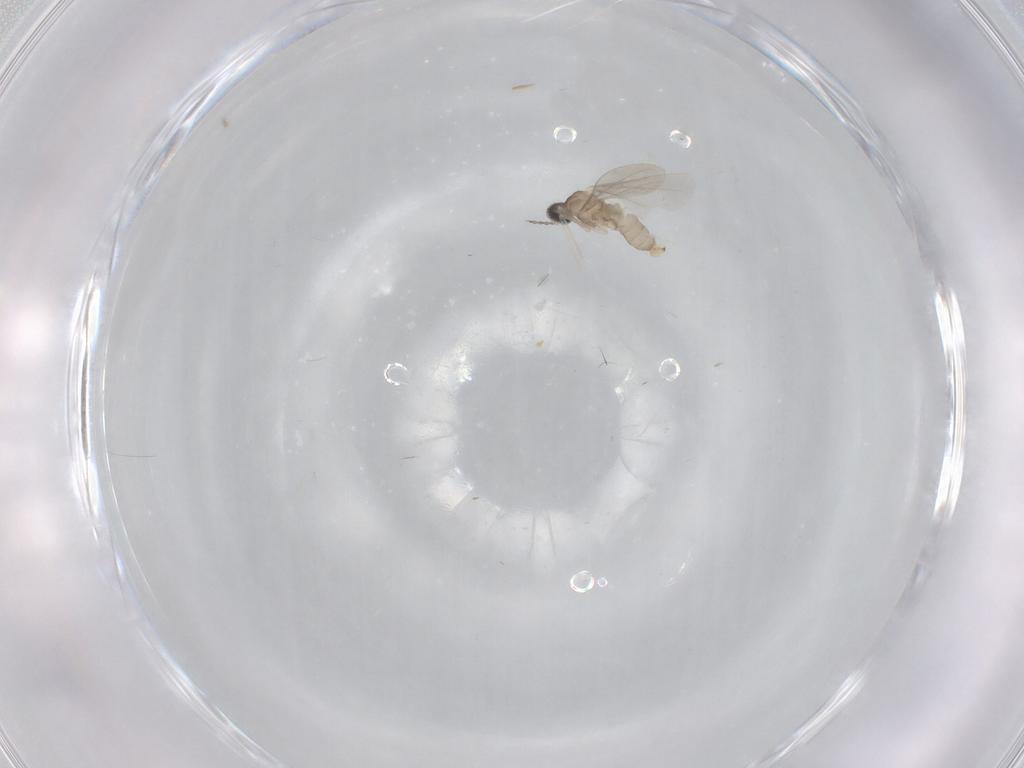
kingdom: Animalia
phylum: Arthropoda
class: Insecta
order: Diptera
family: Cecidomyiidae
